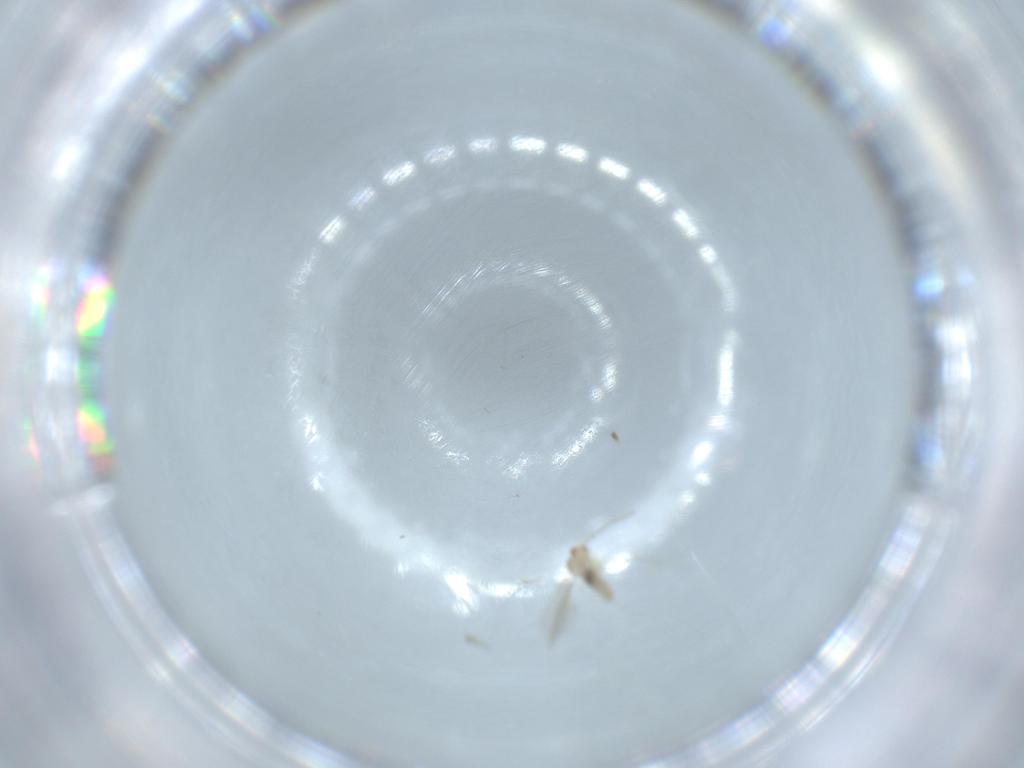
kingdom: Animalia
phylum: Arthropoda
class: Insecta
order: Diptera
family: Cecidomyiidae
